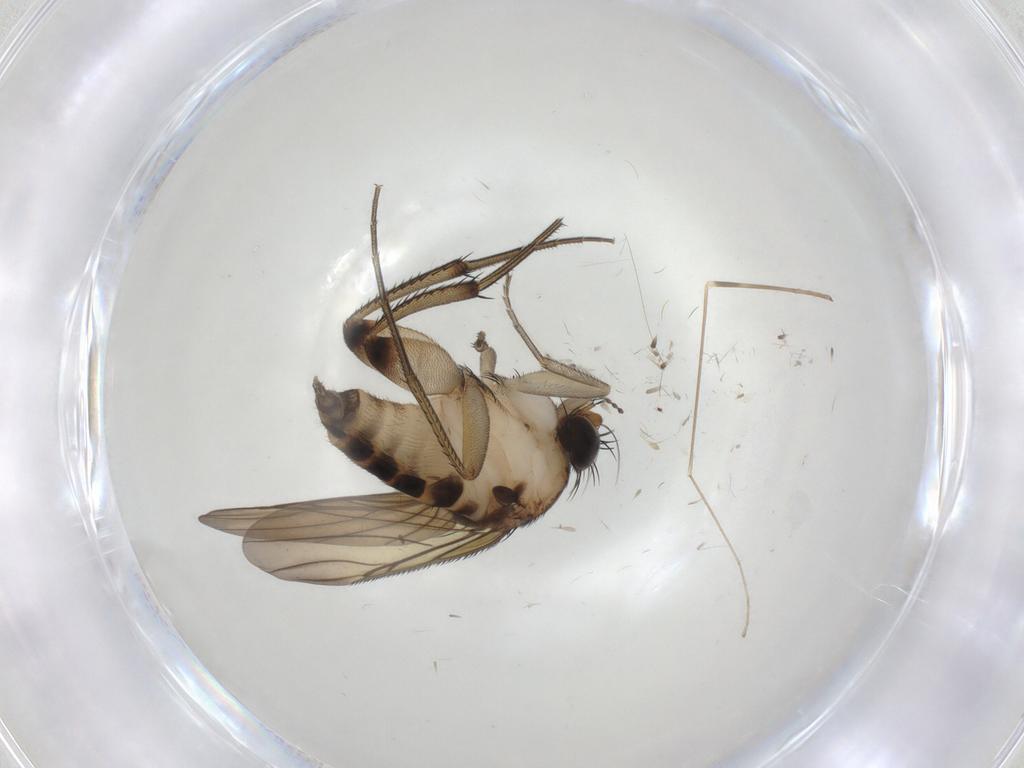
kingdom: Animalia
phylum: Arthropoda
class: Insecta
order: Diptera
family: Limoniidae
